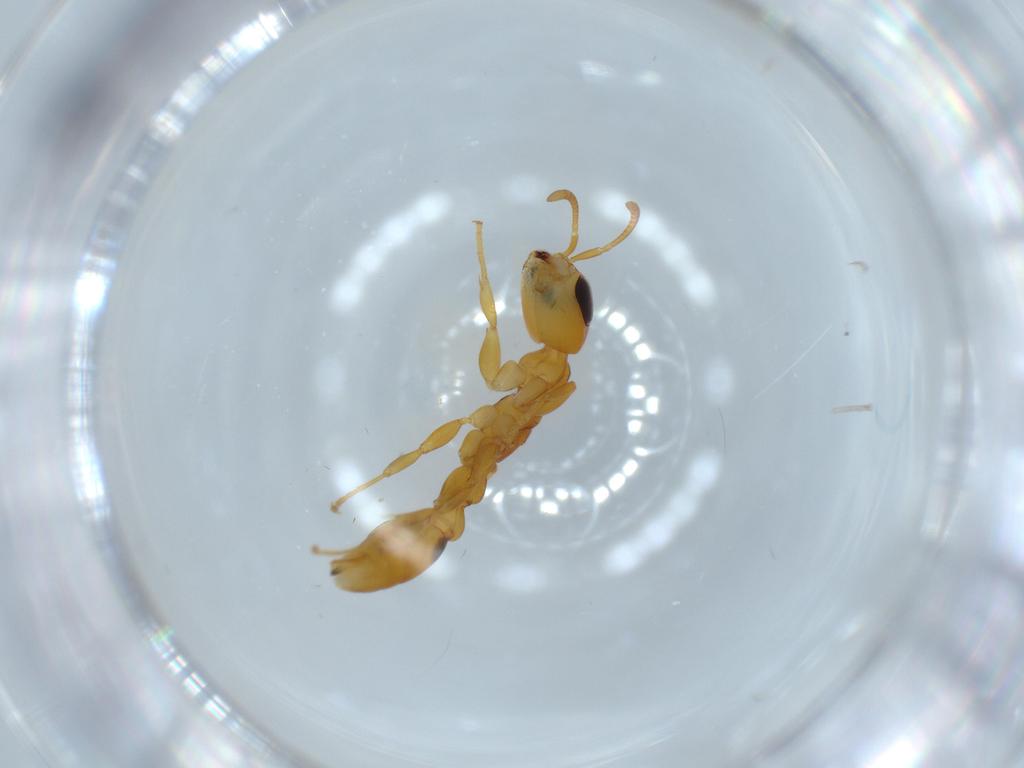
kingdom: Animalia
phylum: Arthropoda
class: Insecta
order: Hymenoptera
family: Formicidae
